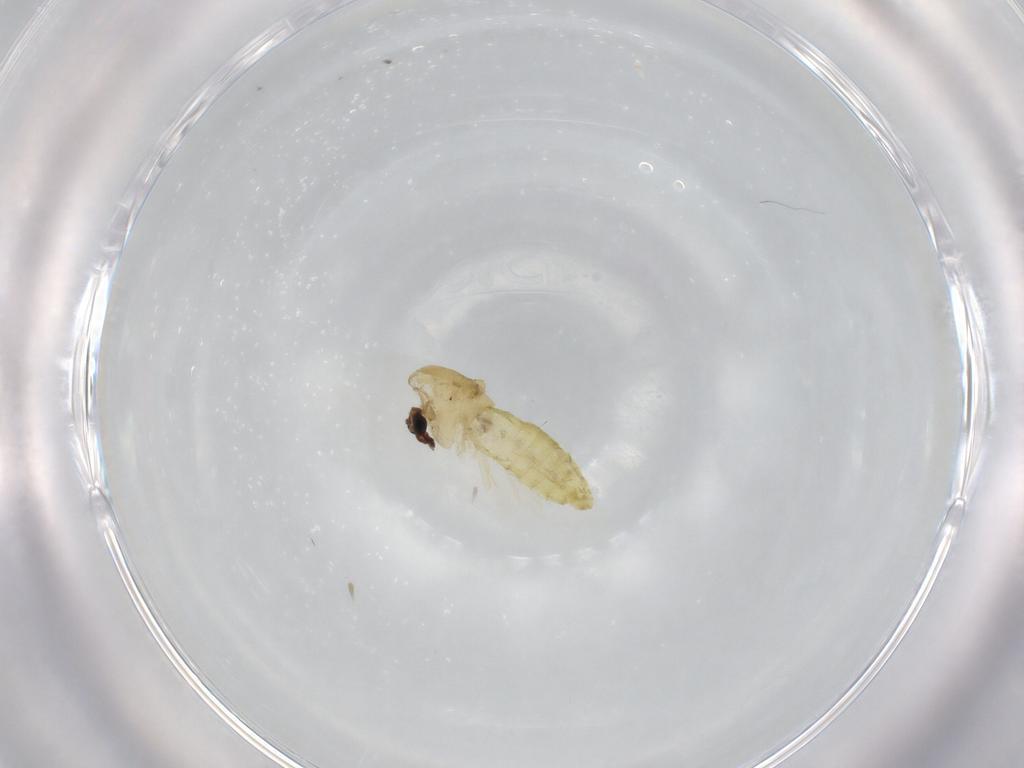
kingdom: Animalia
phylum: Arthropoda
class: Insecta
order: Diptera
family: Chironomidae
